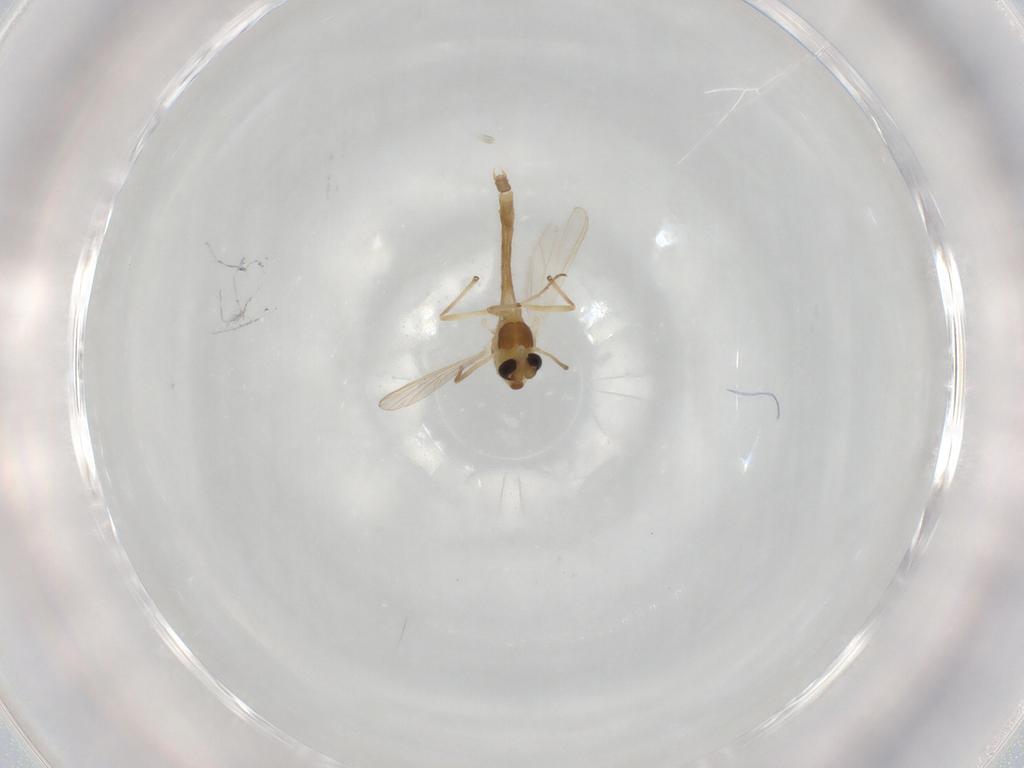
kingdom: Animalia
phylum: Arthropoda
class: Insecta
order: Diptera
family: Chironomidae
